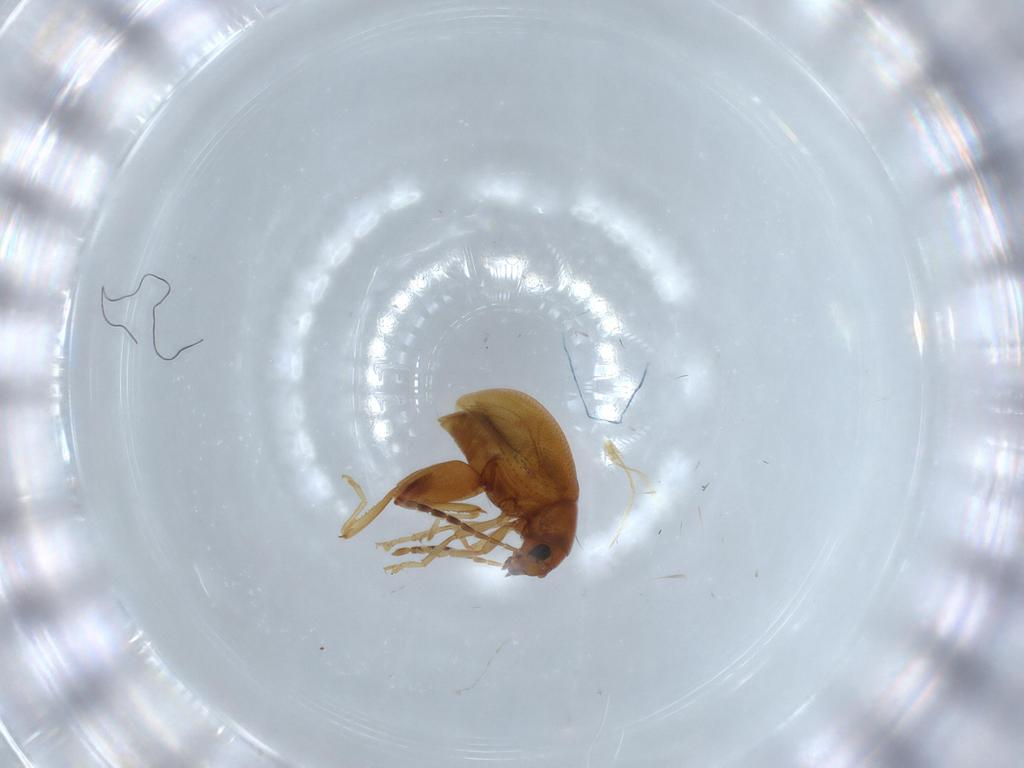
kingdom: Animalia
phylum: Arthropoda
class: Insecta
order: Coleoptera
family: Chrysomelidae
